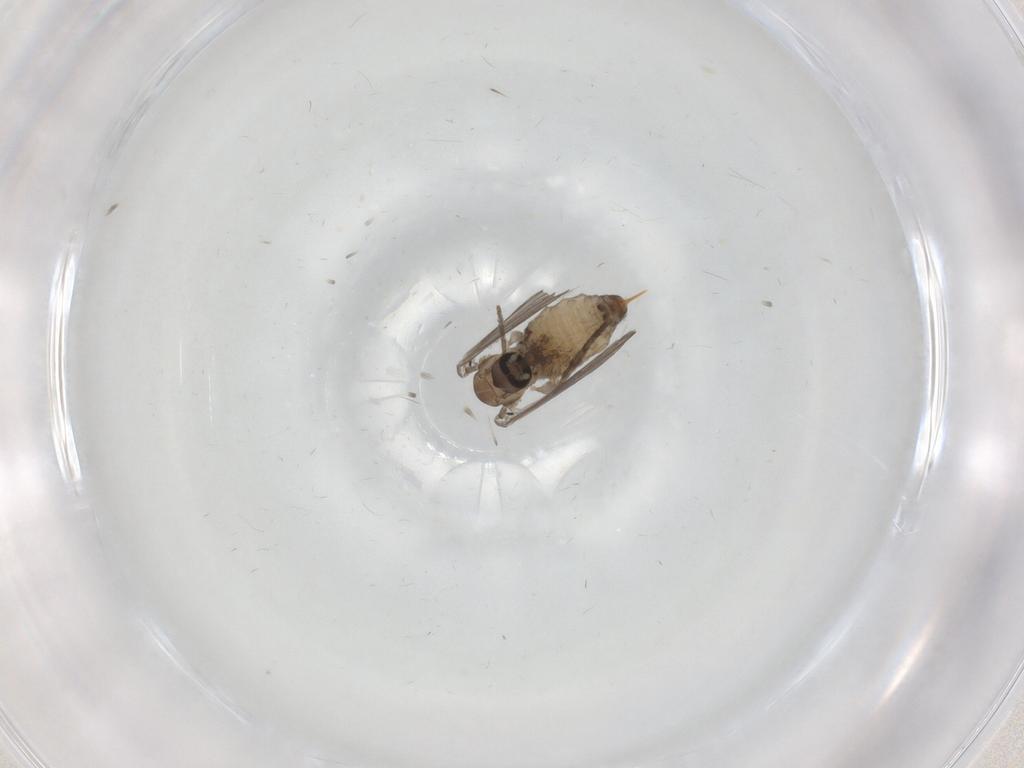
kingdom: Animalia
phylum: Arthropoda
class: Insecta
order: Diptera
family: Psychodidae
